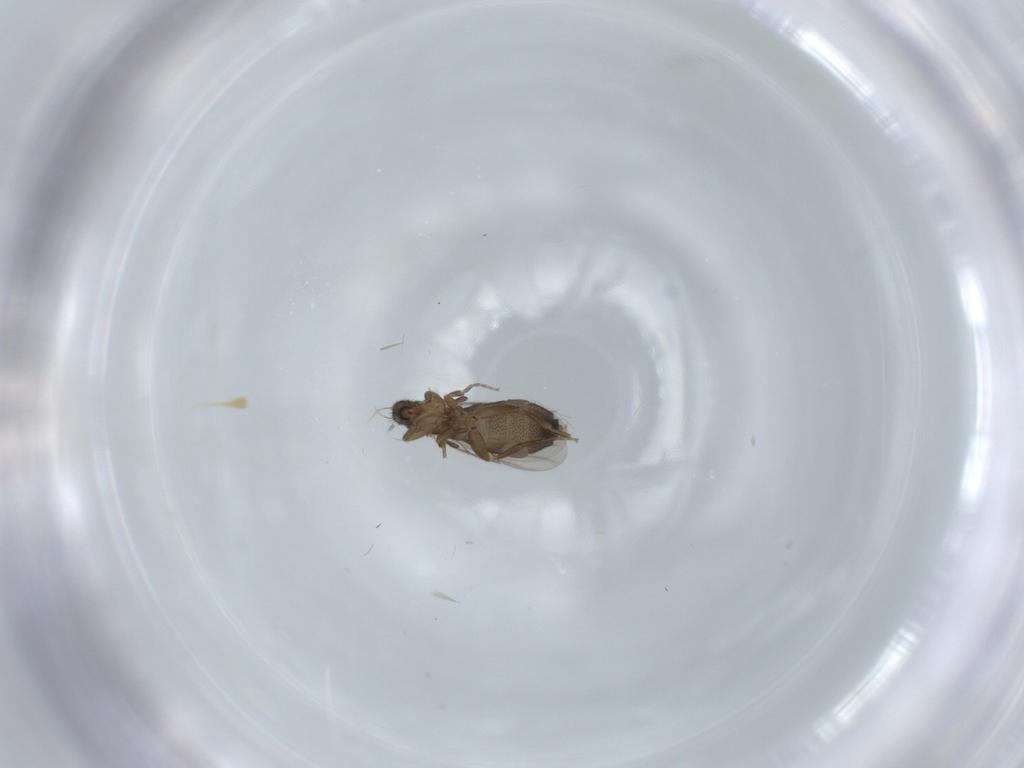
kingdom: Animalia
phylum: Arthropoda
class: Insecta
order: Diptera
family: Phoridae
